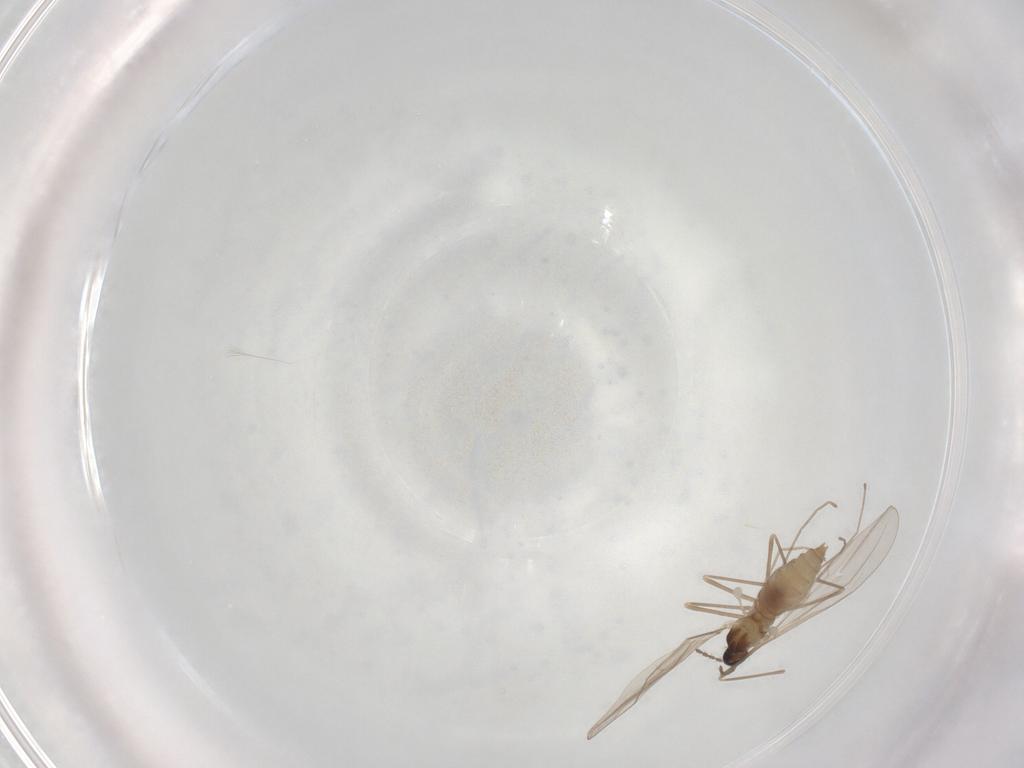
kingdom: Animalia
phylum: Arthropoda
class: Insecta
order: Diptera
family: Cecidomyiidae
